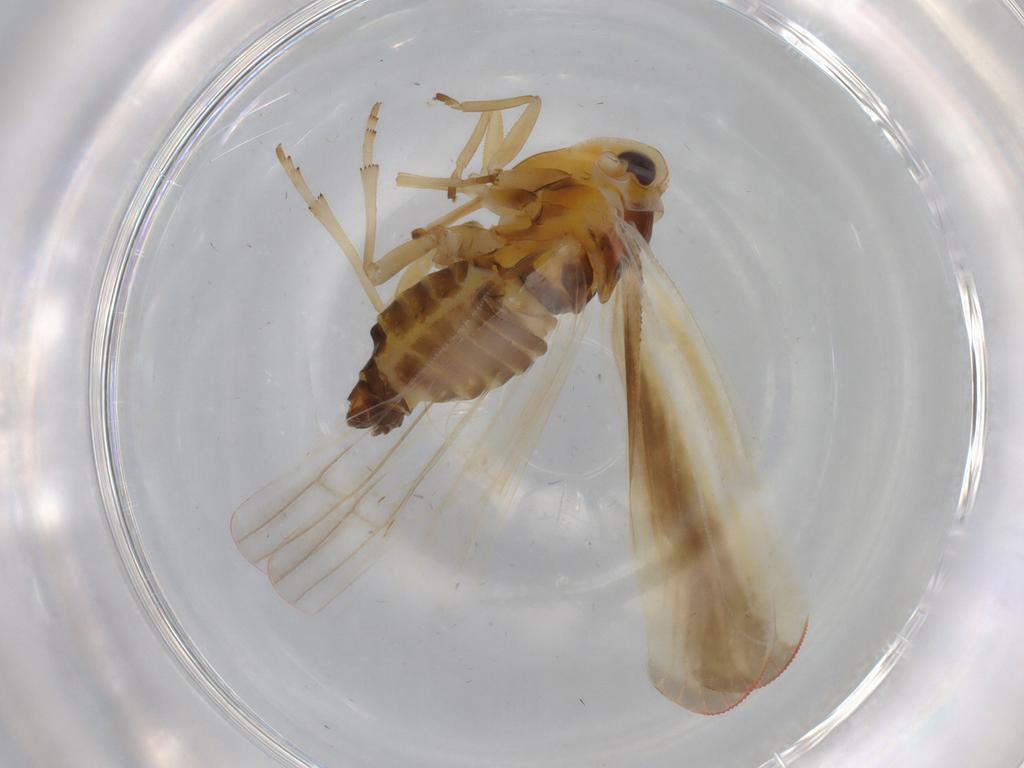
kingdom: Animalia
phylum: Arthropoda
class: Insecta
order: Hemiptera
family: Derbidae
